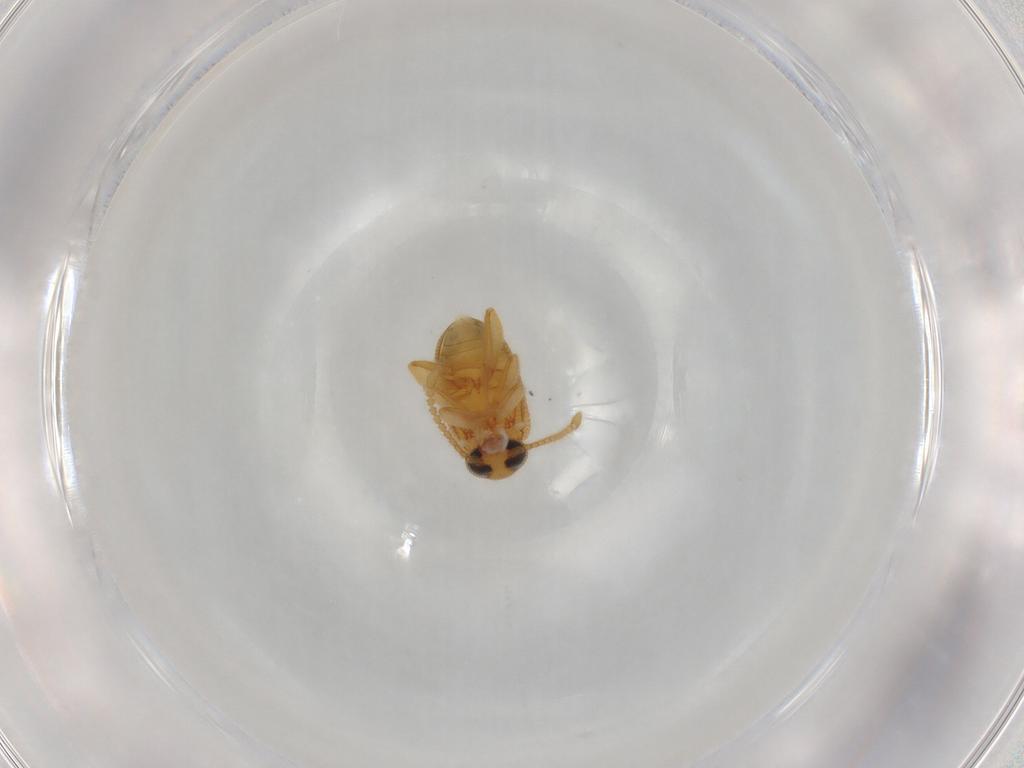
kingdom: Animalia
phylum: Arthropoda
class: Insecta
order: Coleoptera
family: Aderidae
